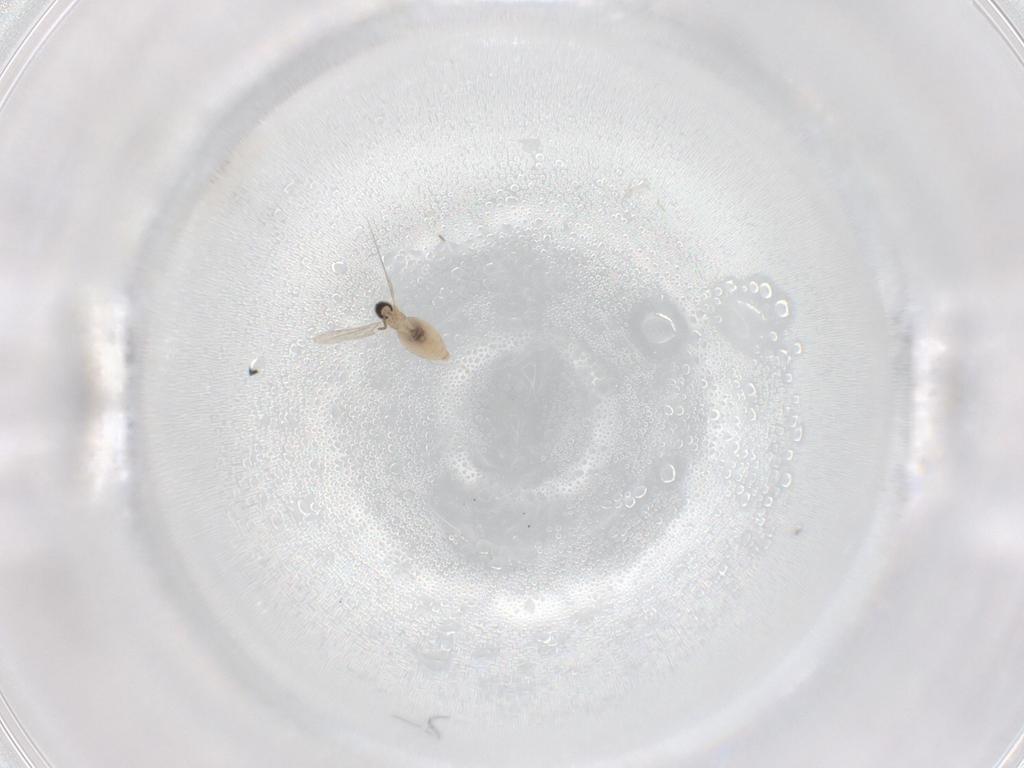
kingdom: Animalia
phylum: Arthropoda
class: Insecta
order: Diptera
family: Cecidomyiidae
